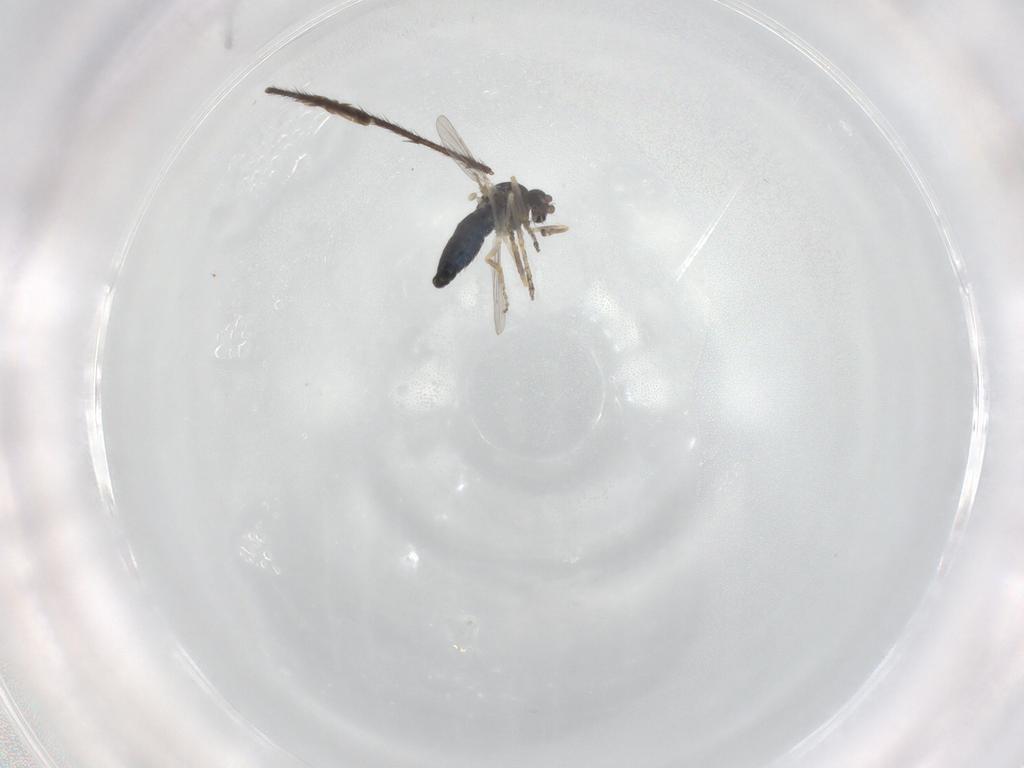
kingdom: Animalia
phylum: Arthropoda
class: Insecta
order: Diptera
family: Ceratopogonidae
